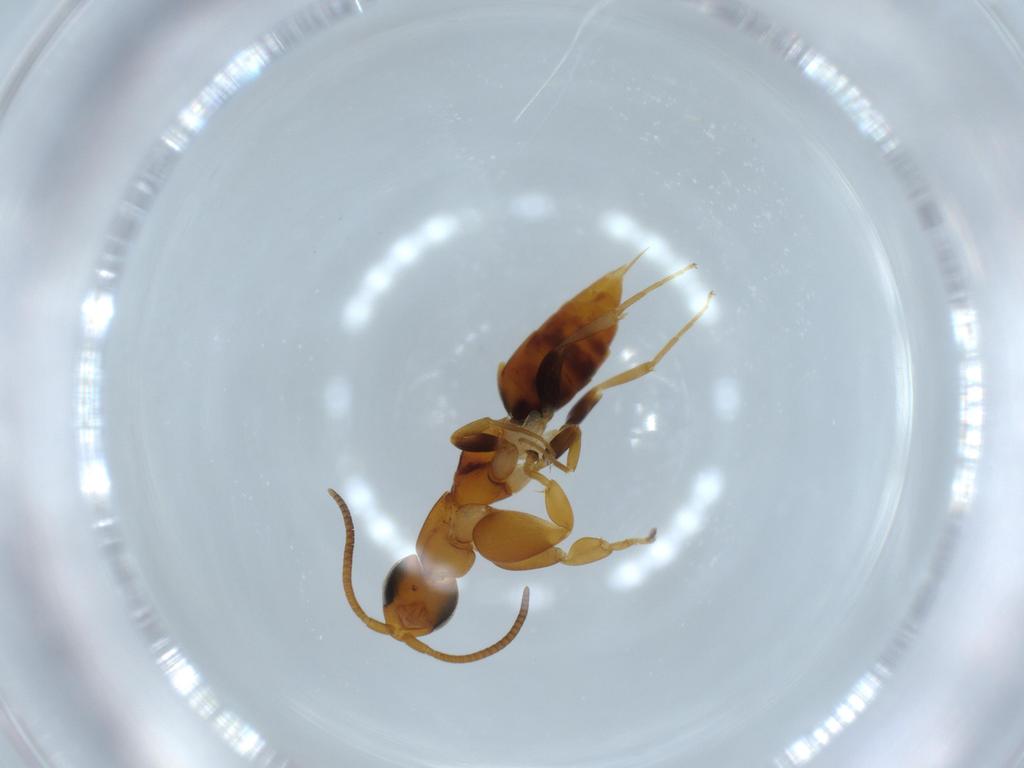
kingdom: Animalia
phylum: Arthropoda
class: Insecta
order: Hymenoptera
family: Sclerogibbidae
